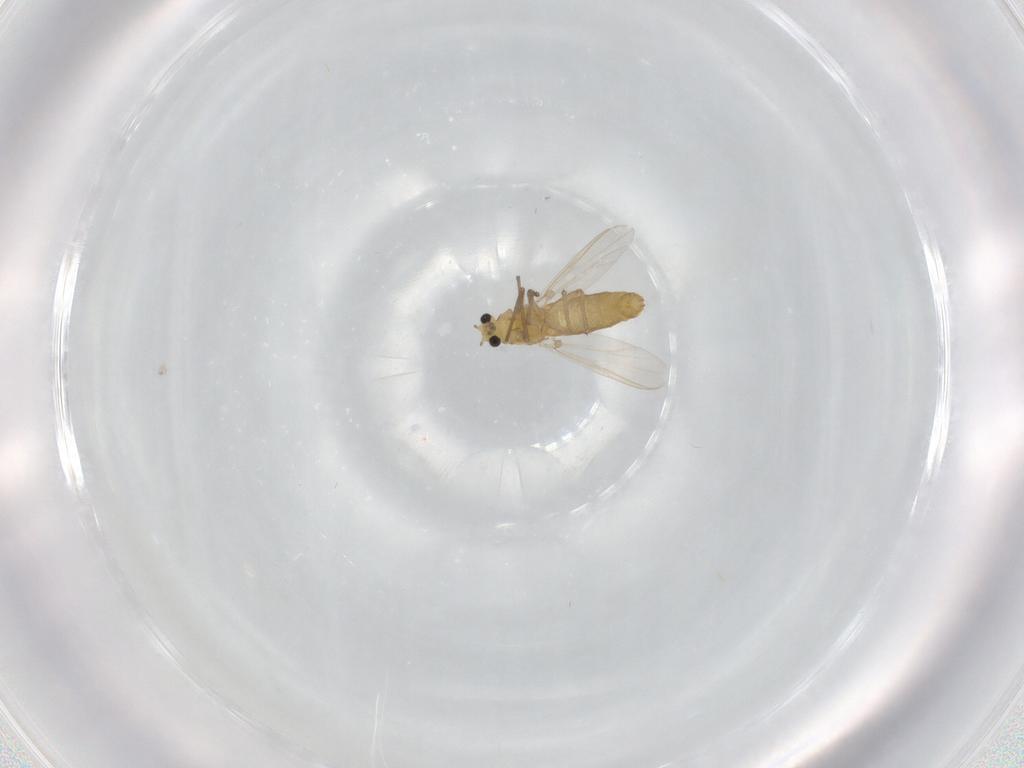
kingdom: Animalia
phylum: Arthropoda
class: Insecta
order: Diptera
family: Chironomidae
